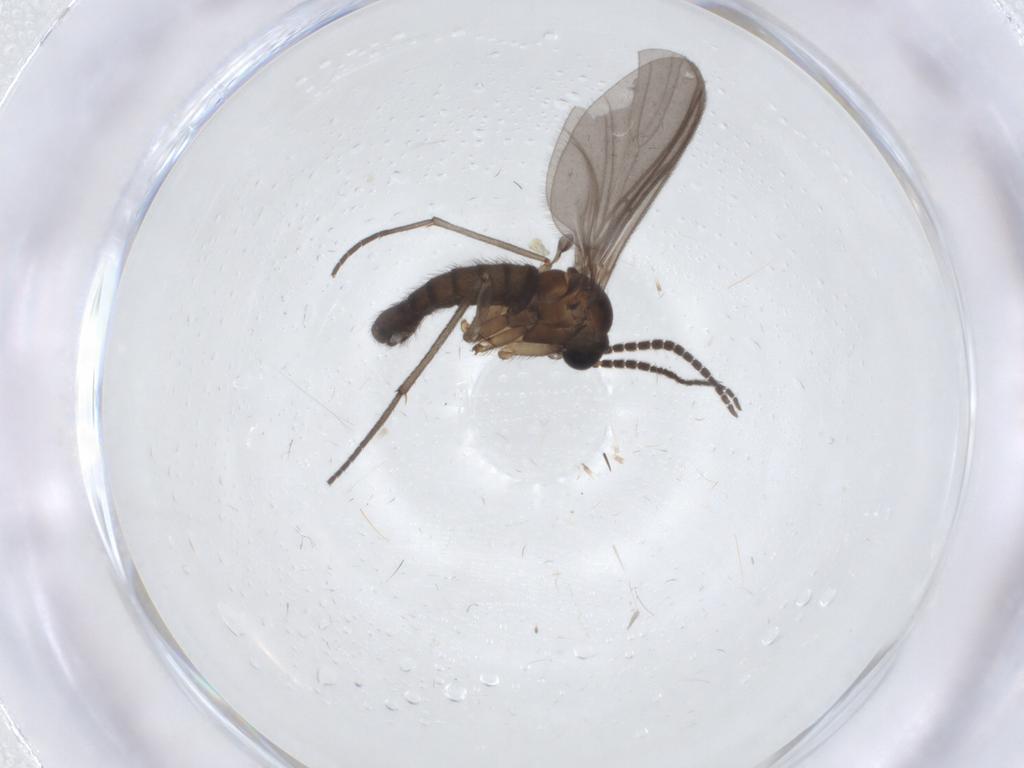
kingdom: Animalia
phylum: Arthropoda
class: Insecta
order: Diptera
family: Sciaridae
